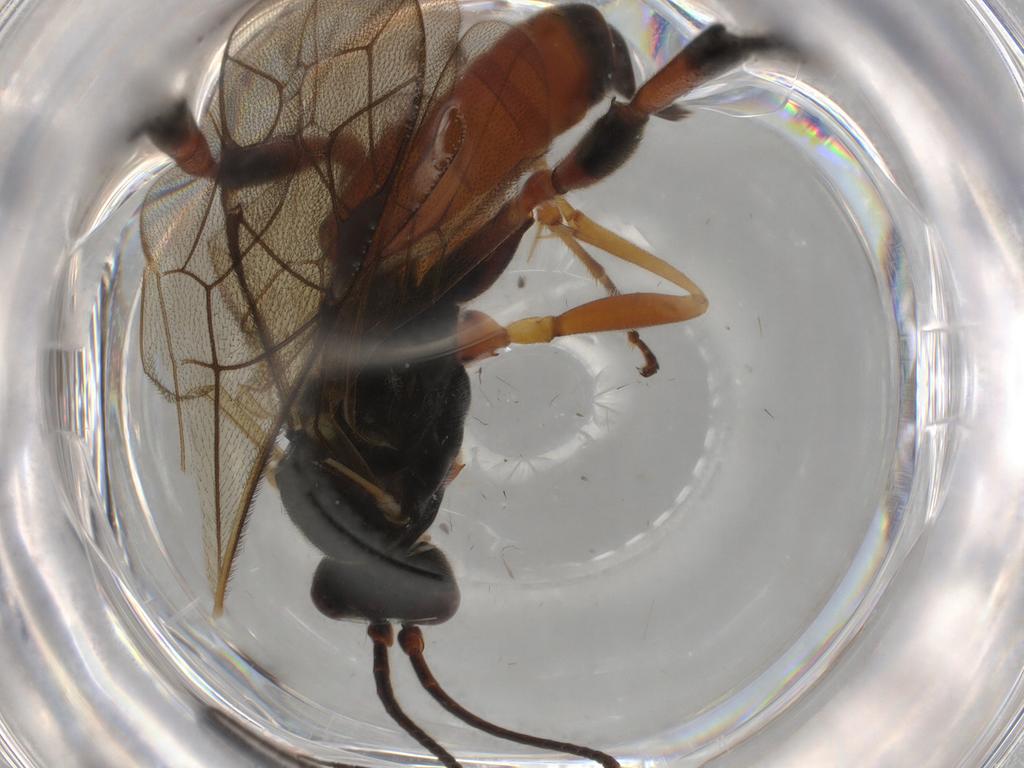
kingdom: Animalia
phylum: Arthropoda
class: Insecta
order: Hymenoptera
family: Ichneumonidae
